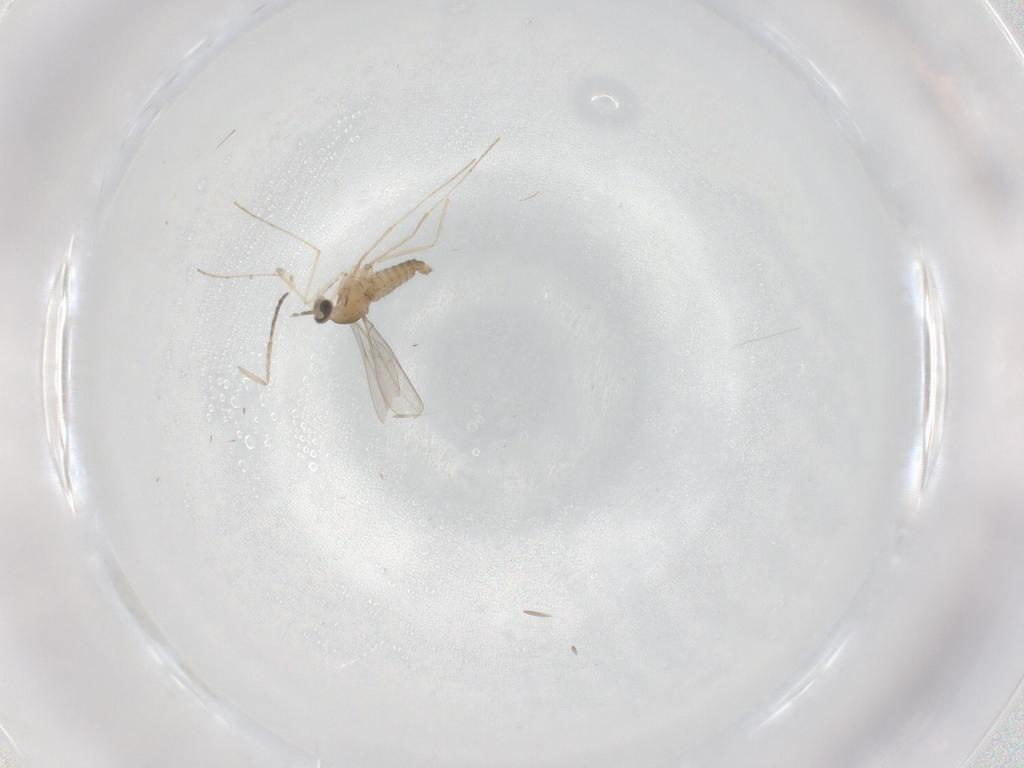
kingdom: Animalia
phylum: Arthropoda
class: Insecta
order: Diptera
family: Cecidomyiidae
